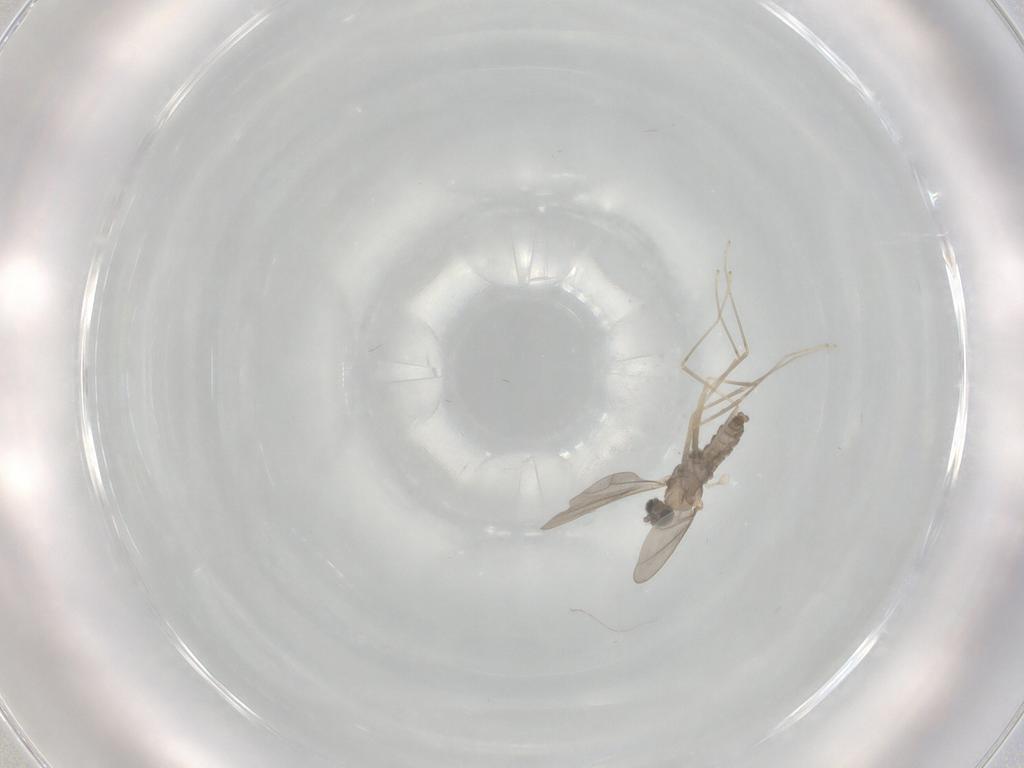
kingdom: Animalia
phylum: Arthropoda
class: Insecta
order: Diptera
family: Cecidomyiidae
